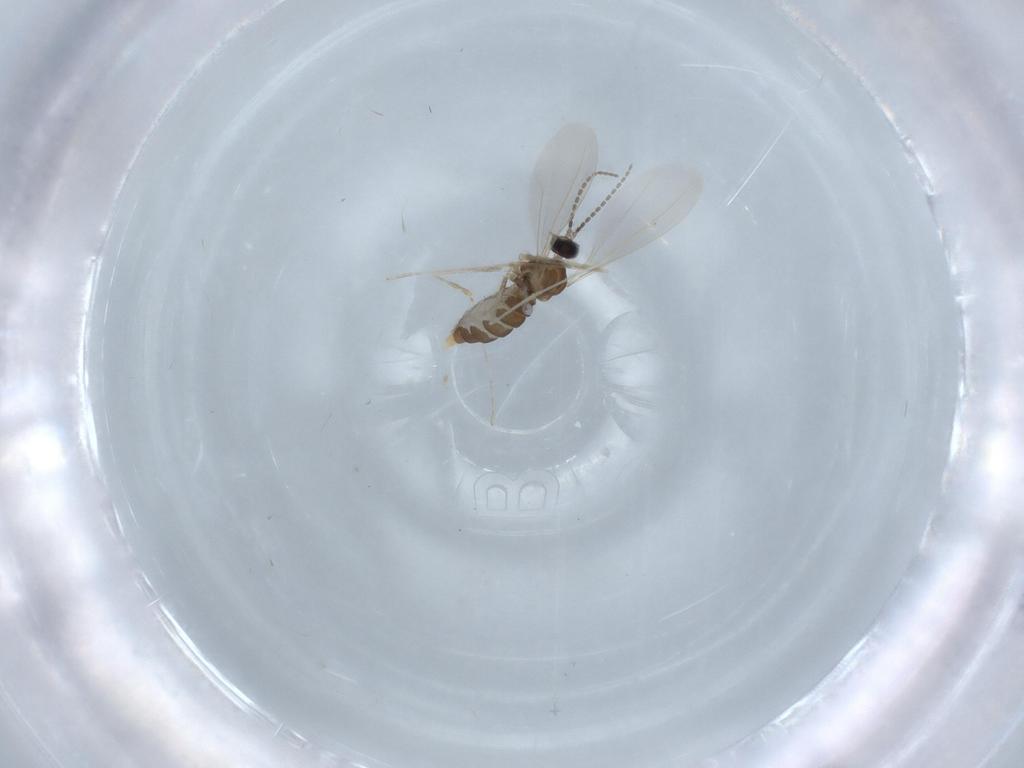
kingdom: Animalia
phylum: Arthropoda
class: Insecta
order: Diptera
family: Cecidomyiidae
